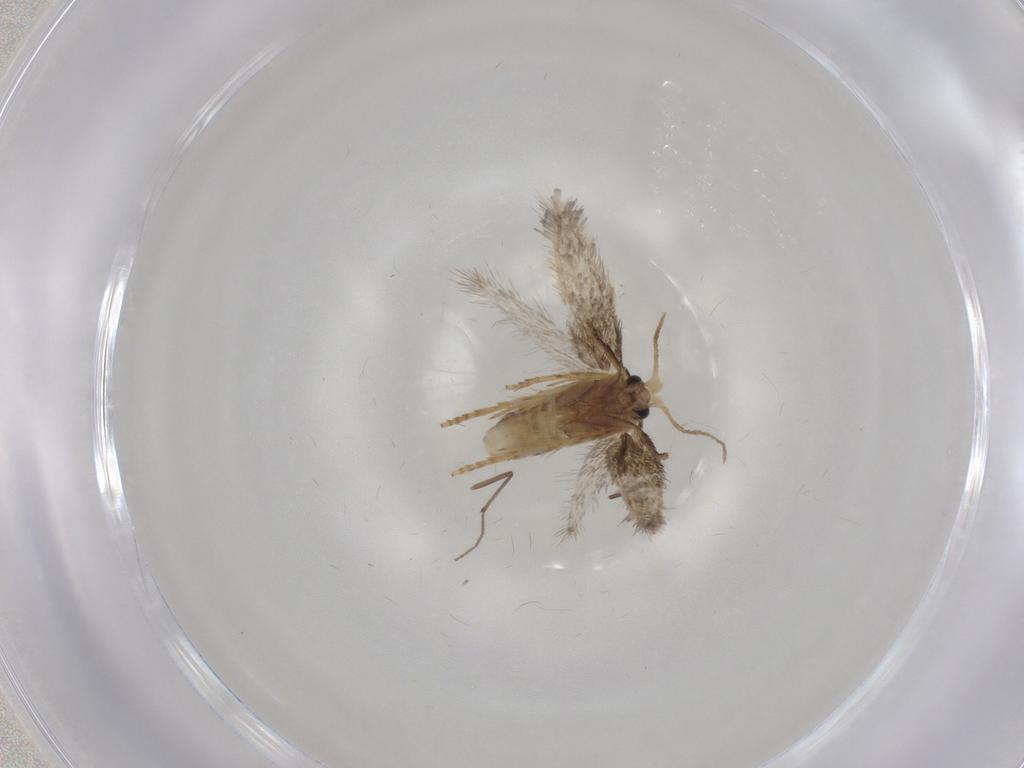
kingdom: Animalia
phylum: Arthropoda
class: Insecta
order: Lepidoptera
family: Nepticulidae
